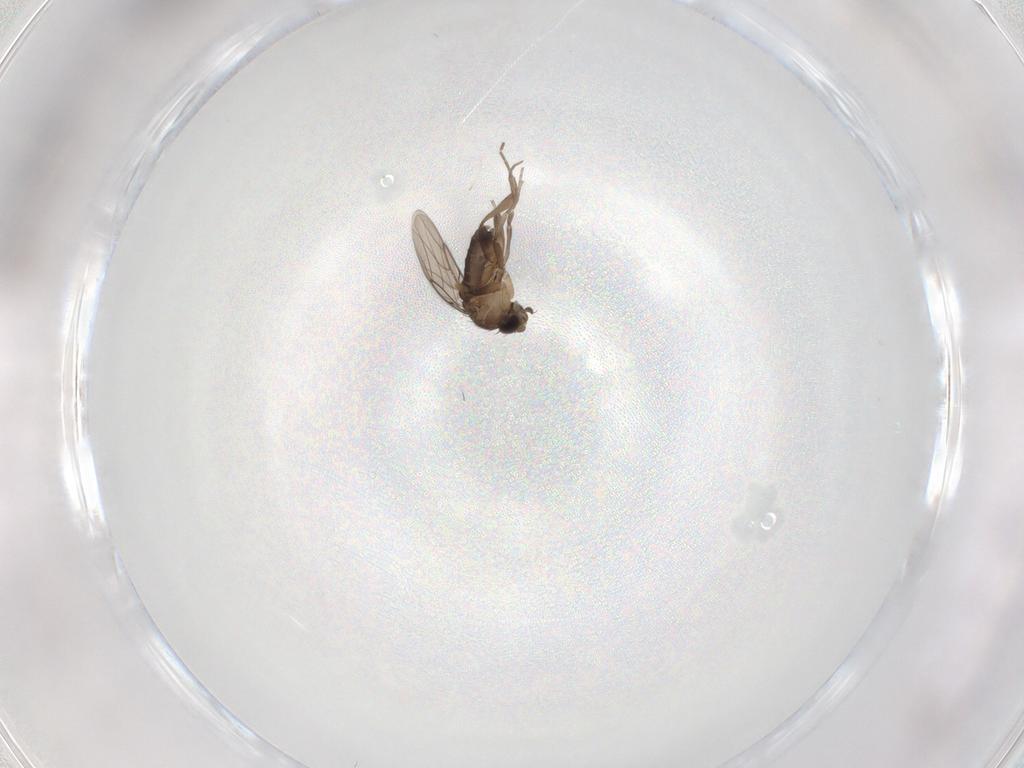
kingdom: Animalia
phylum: Arthropoda
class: Insecta
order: Diptera
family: Phoridae
